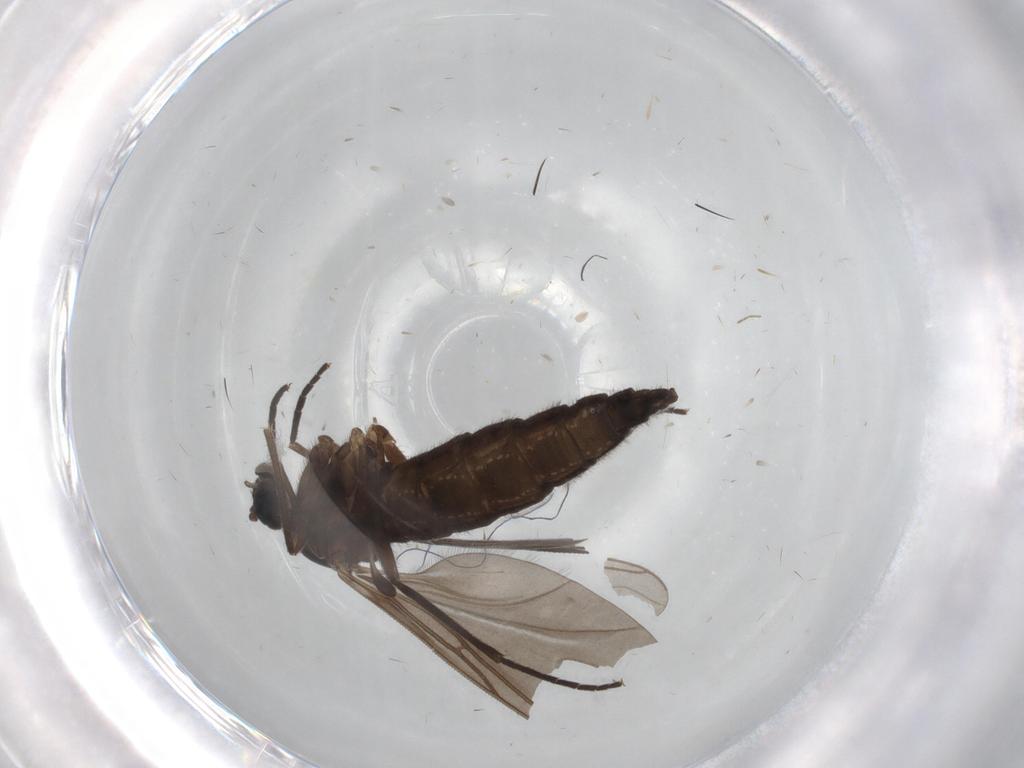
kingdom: Animalia
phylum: Arthropoda
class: Insecta
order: Diptera
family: Sciaridae
